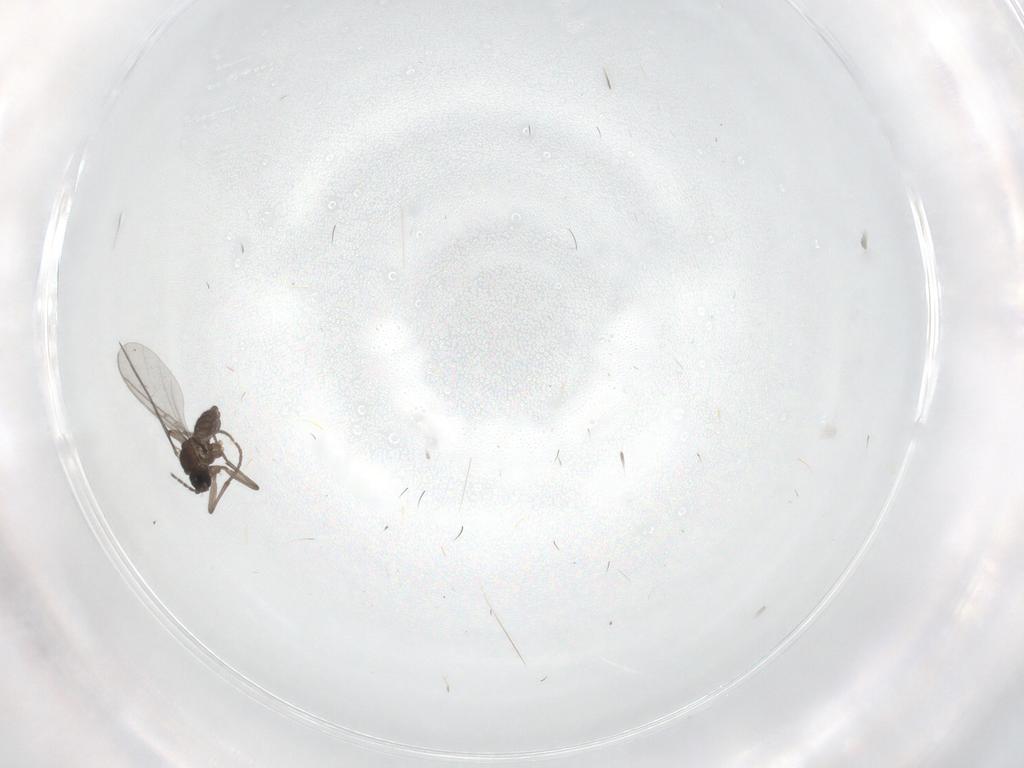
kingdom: Animalia
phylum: Arthropoda
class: Insecta
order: Diptera
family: Sciaridae
